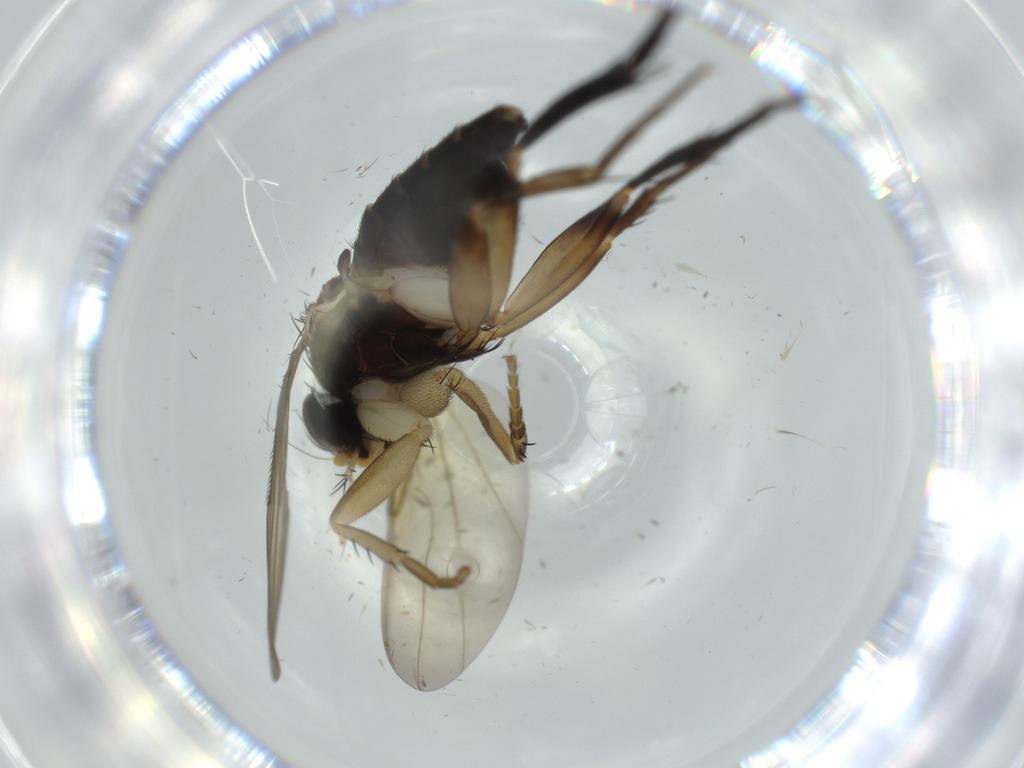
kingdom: Animalia
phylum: Arthropoda
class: Insecta
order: Diptera
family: Phoridae
